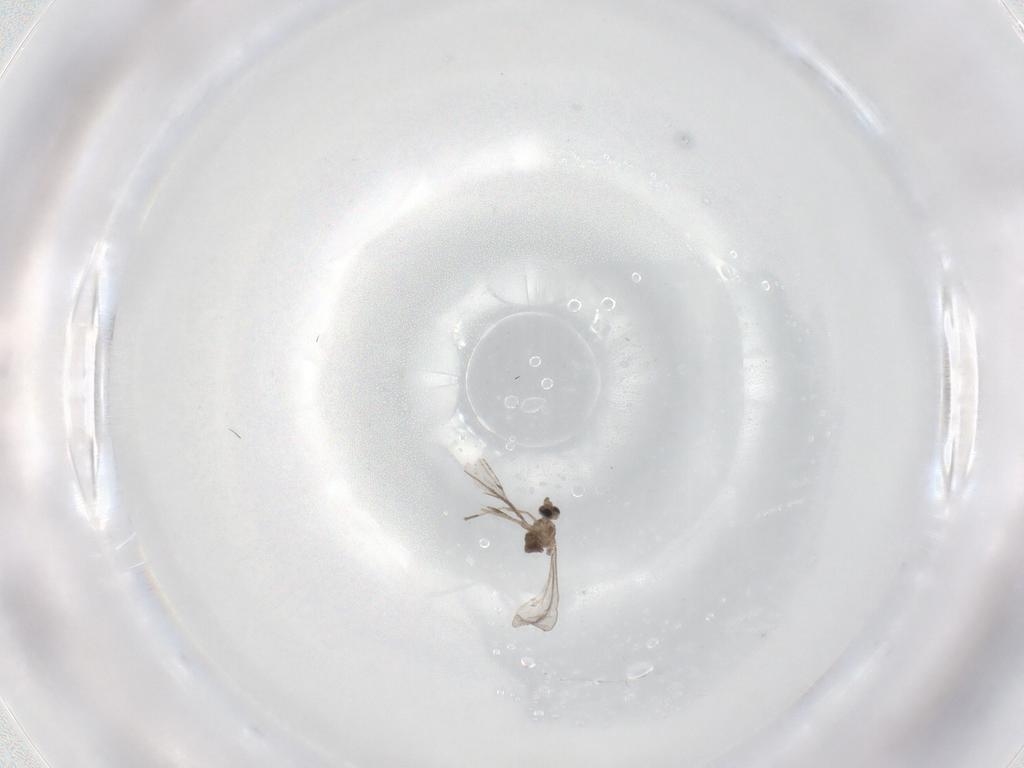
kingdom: Animalia
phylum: Arthropoda
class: Insecta
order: Diptera
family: Cecidomyiidae
